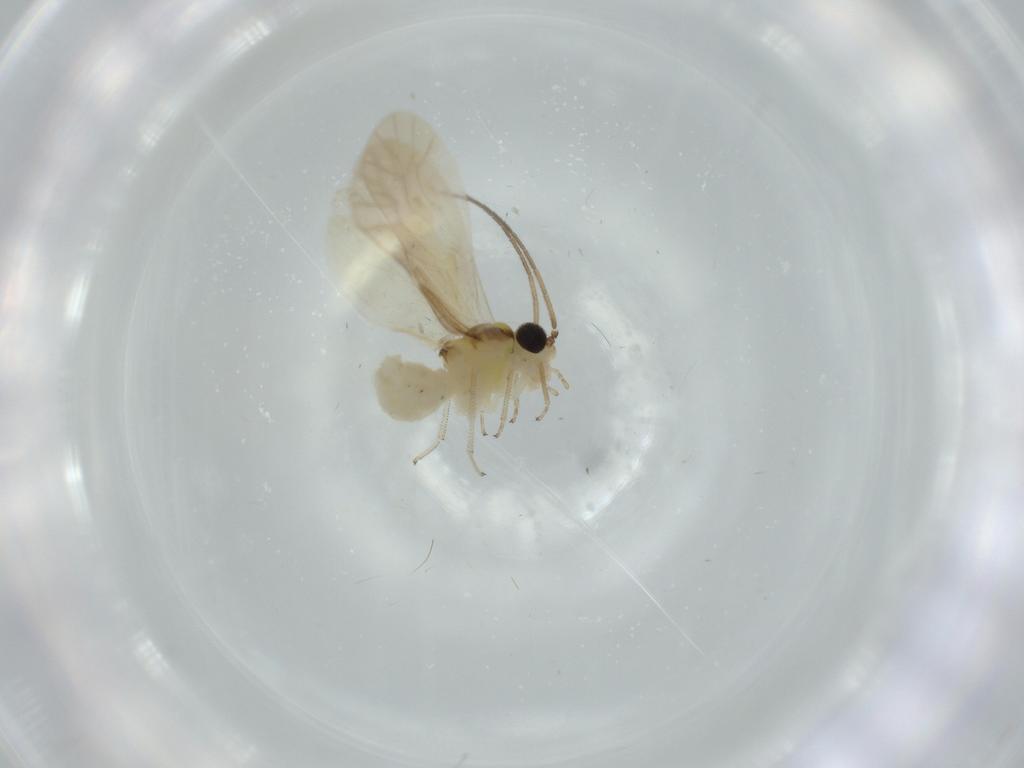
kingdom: Animalia
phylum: Arthropoda
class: Insecta
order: Psocodea
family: Caeciliusidae
